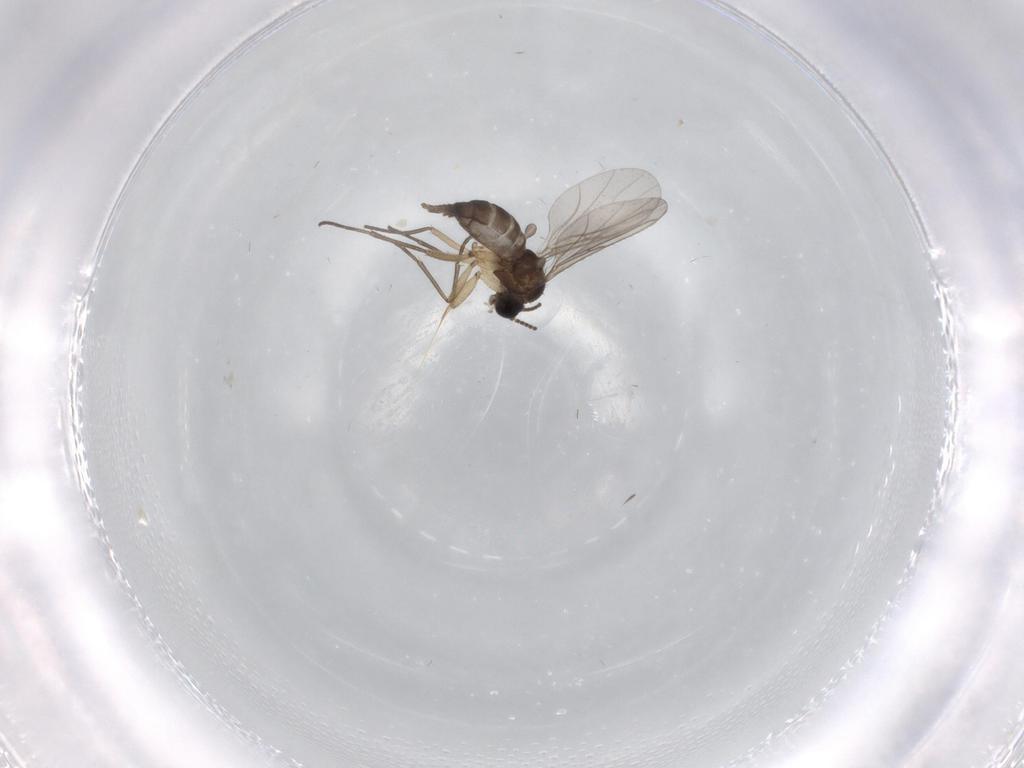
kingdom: Animalia
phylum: Arthropoda
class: Insecta
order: Diptera
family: Sciaridae
